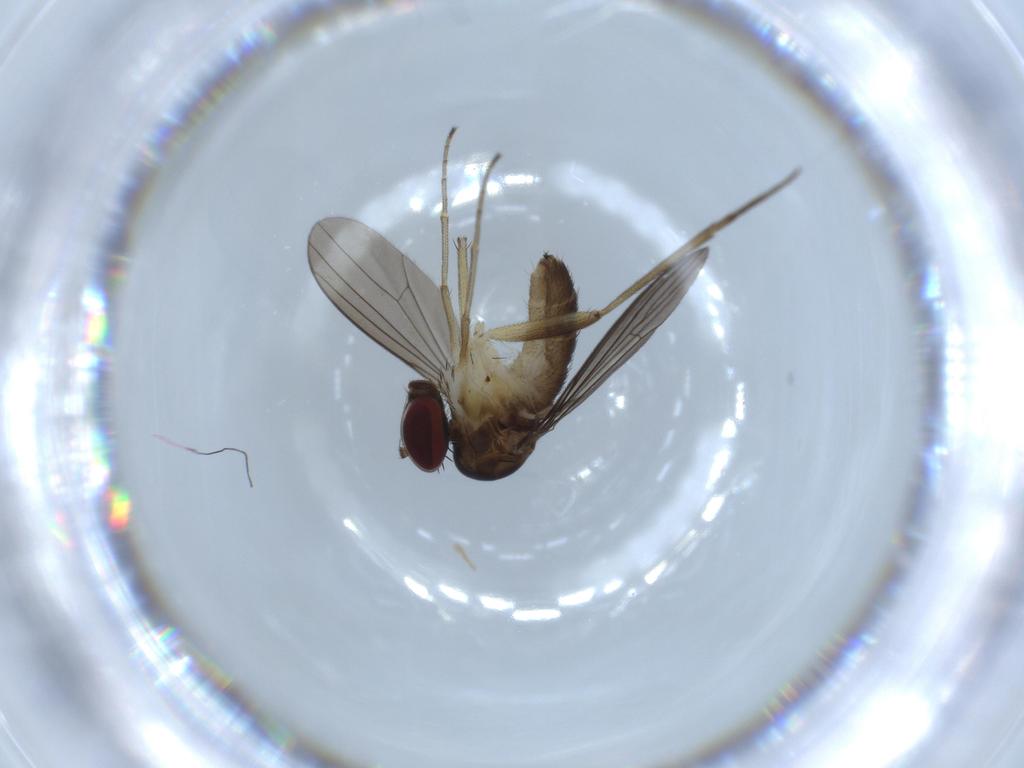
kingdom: Animalia
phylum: Arthropoda
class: Insecta
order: Diptera
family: Dolichopodidae
